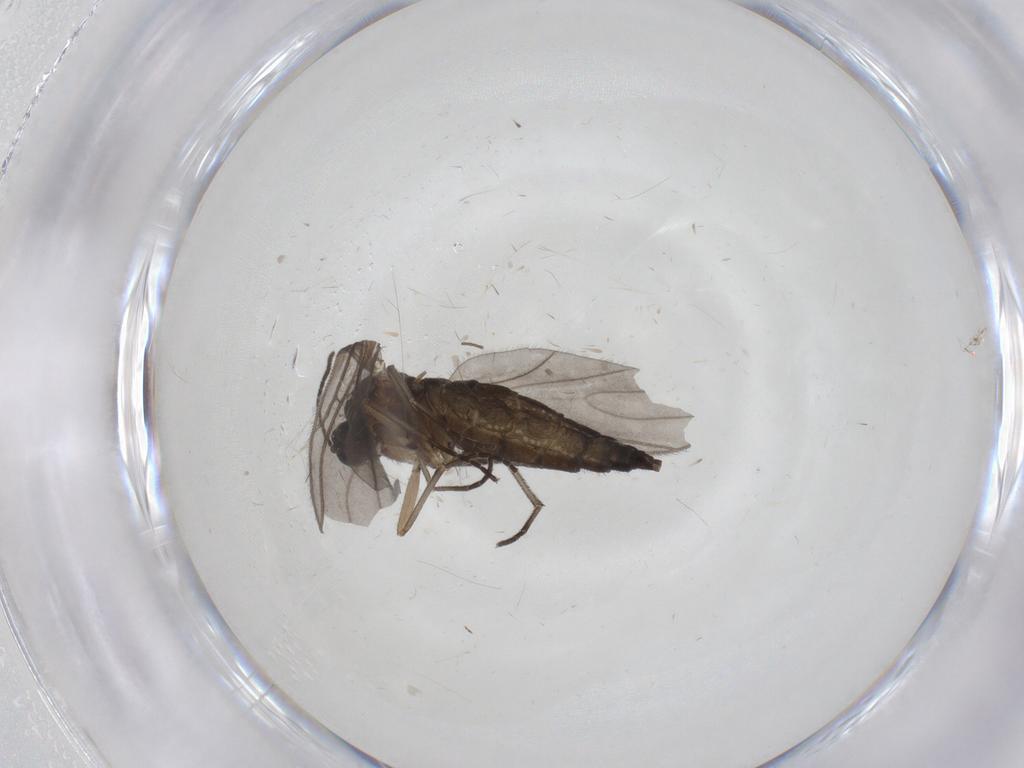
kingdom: Animalia
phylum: Arthropoda
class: Insecta
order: Diptera
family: Sciaridae
